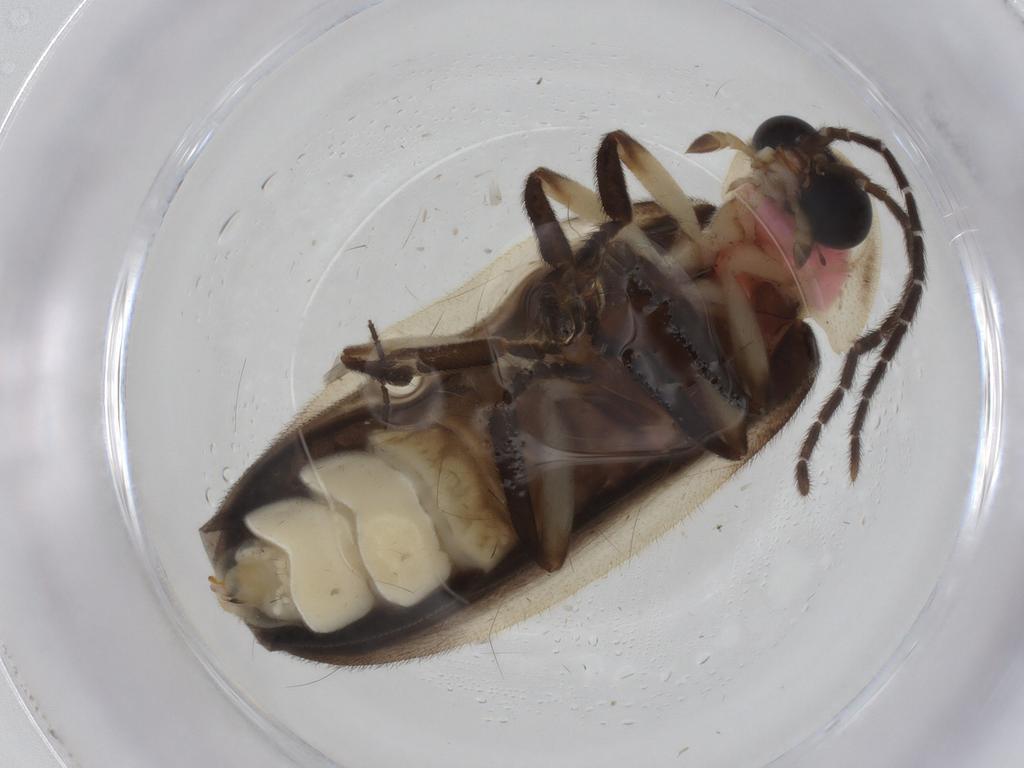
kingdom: Animalia
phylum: Arthropoda
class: Insecta
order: Coleoptera
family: Lampyridae
